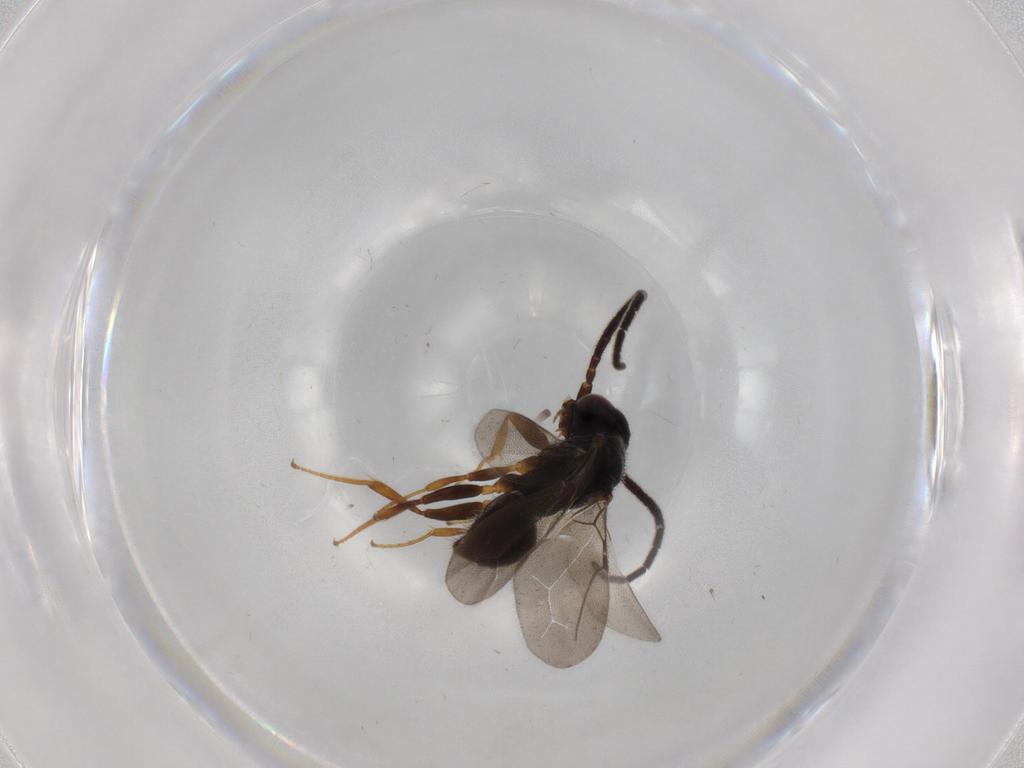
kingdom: Animalia
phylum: Arthropoda
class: Insecta
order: Hymenoptera
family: Bethylidae
